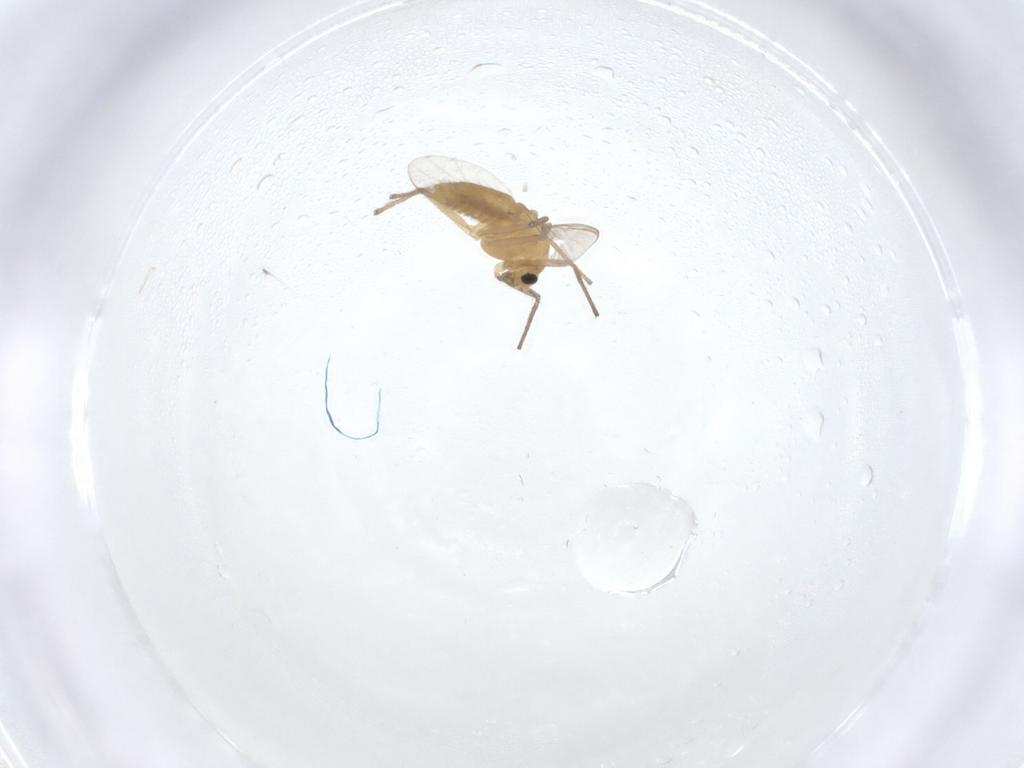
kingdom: Animalia
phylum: Arthropoda
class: Insecta
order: Diptera
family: Chironomidae
